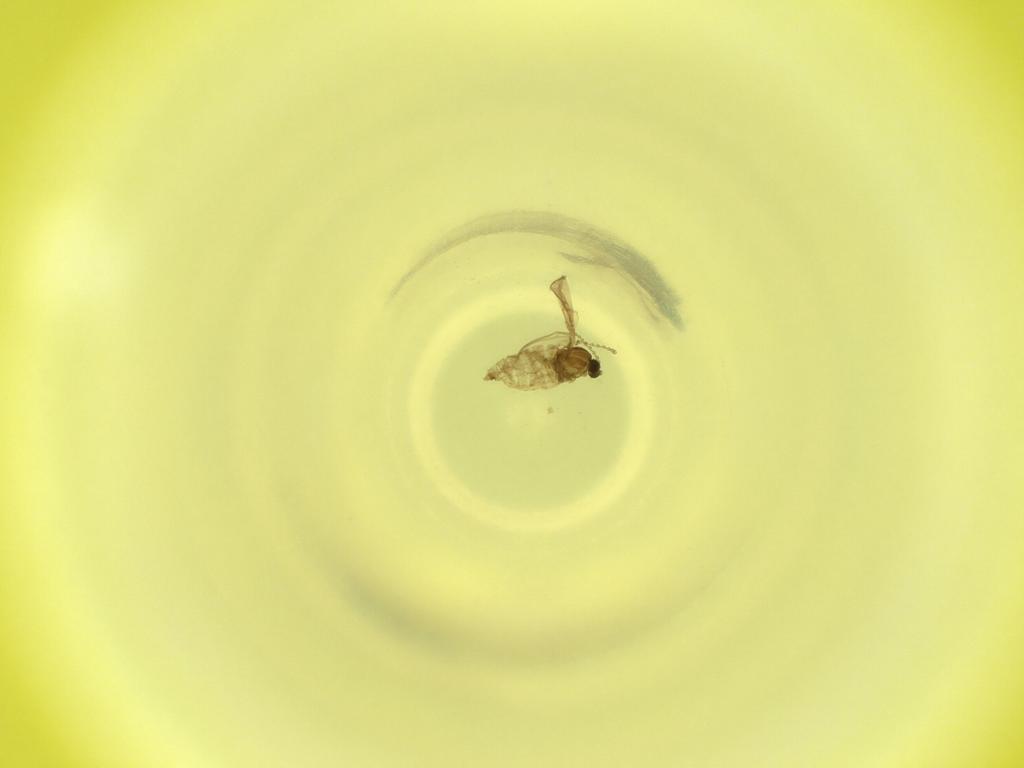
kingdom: Animalia
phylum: Arthropoda
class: Insecta
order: Diptera
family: Cecidomyiidae
